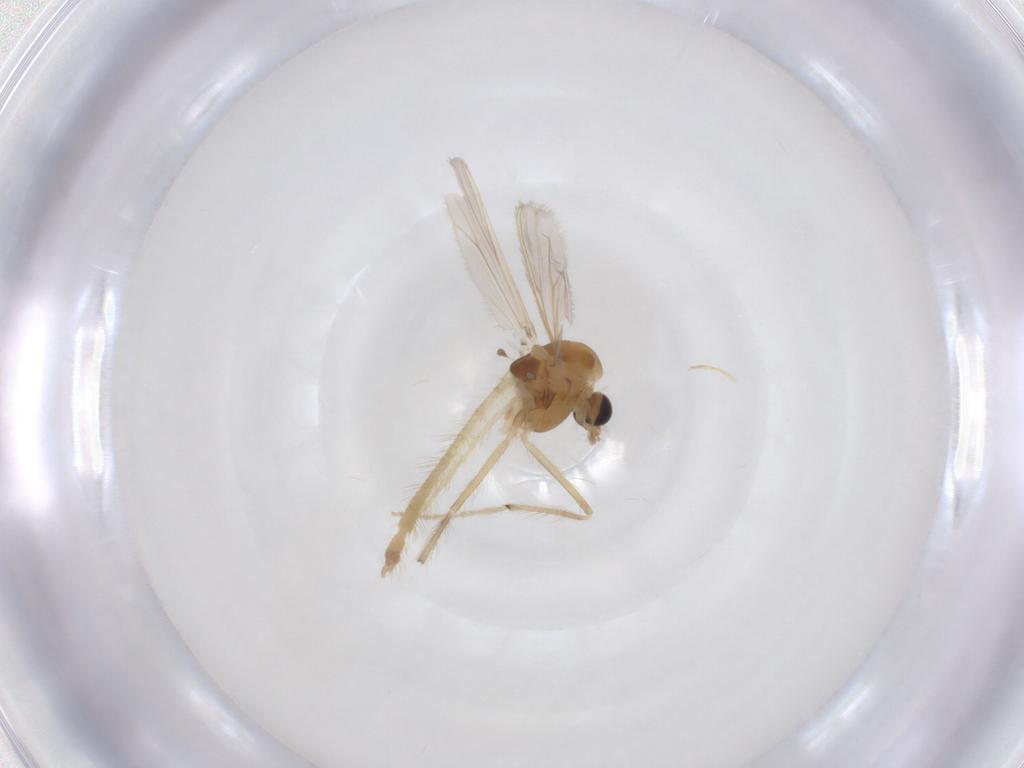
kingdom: Animalia
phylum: Arthropoda
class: Insecta
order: Diptera
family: Chironomidae
